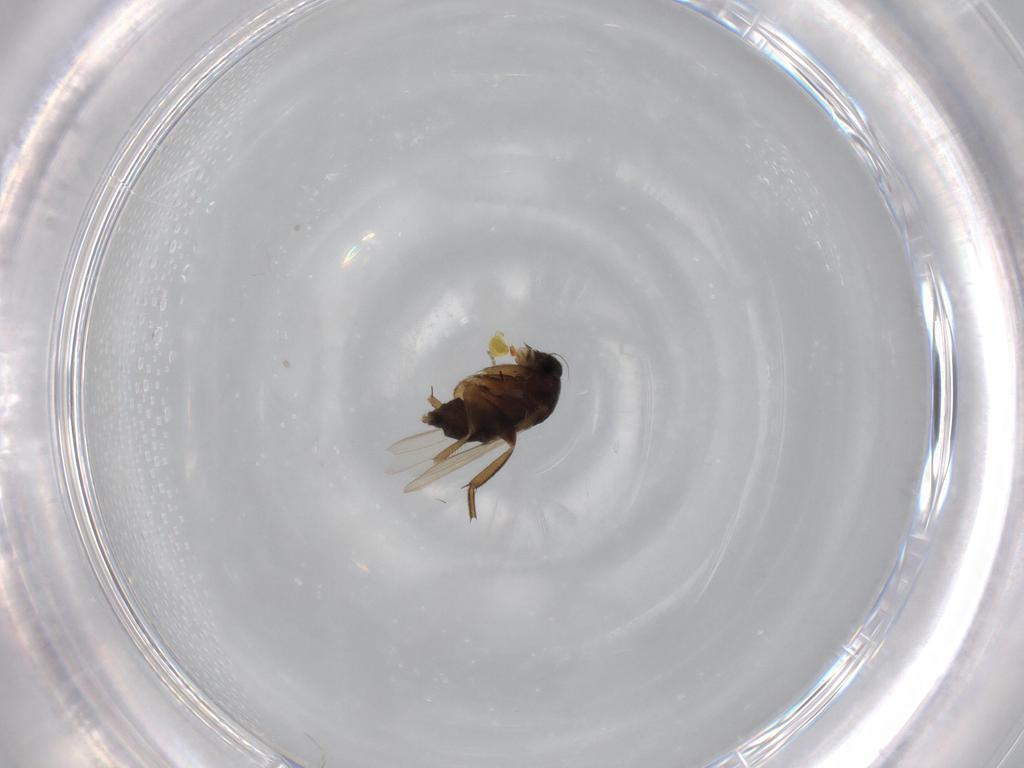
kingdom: Animalia
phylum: Arthropoda
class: Insecta
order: Diptera
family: Phoridae
